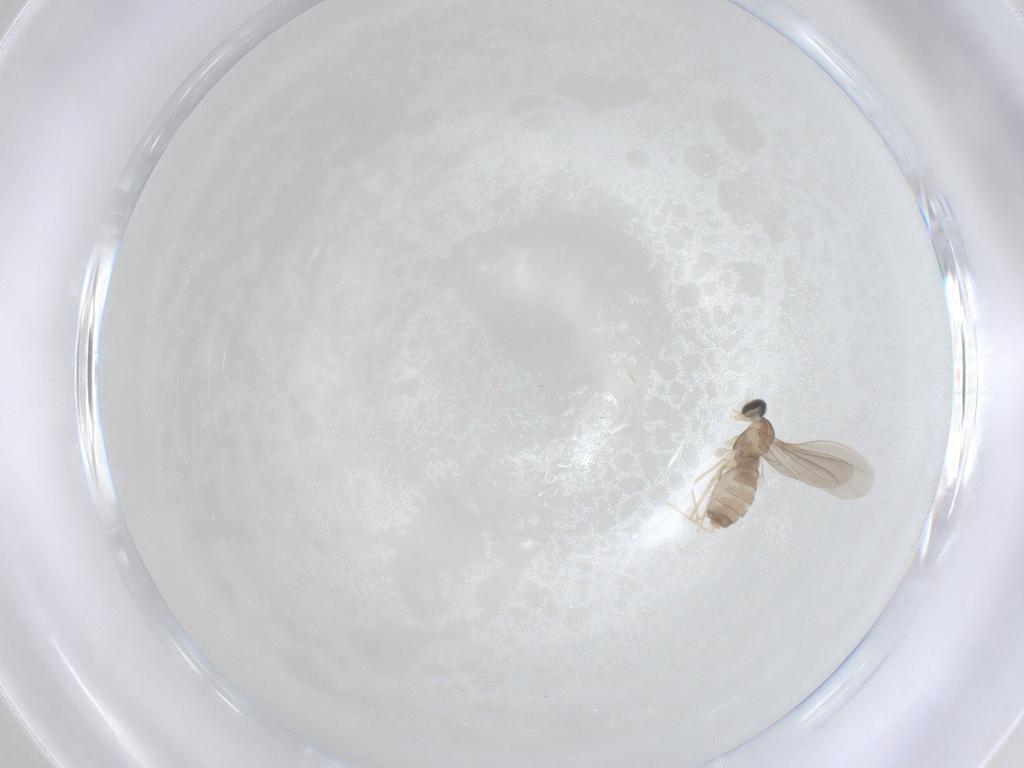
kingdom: Animalia
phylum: Arthropoda
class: Insecta
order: Diptera
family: Cecidomyiidae
